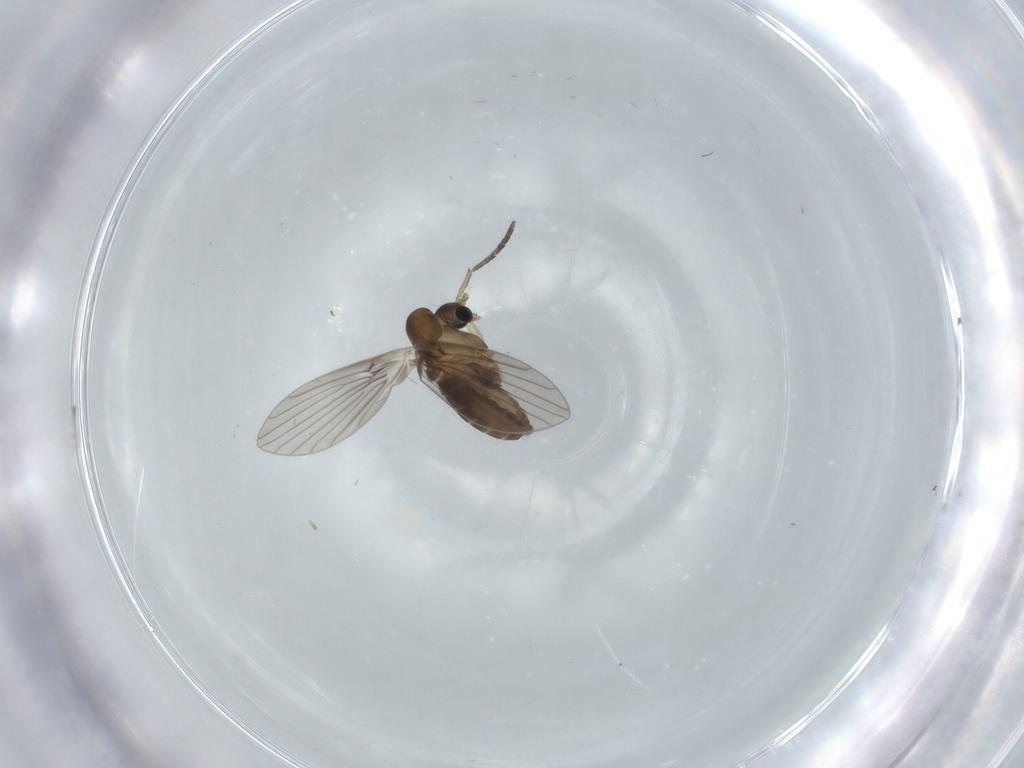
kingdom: Animalia
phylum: Arthropoda
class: Insecta
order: Diptera
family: Psychodidae
